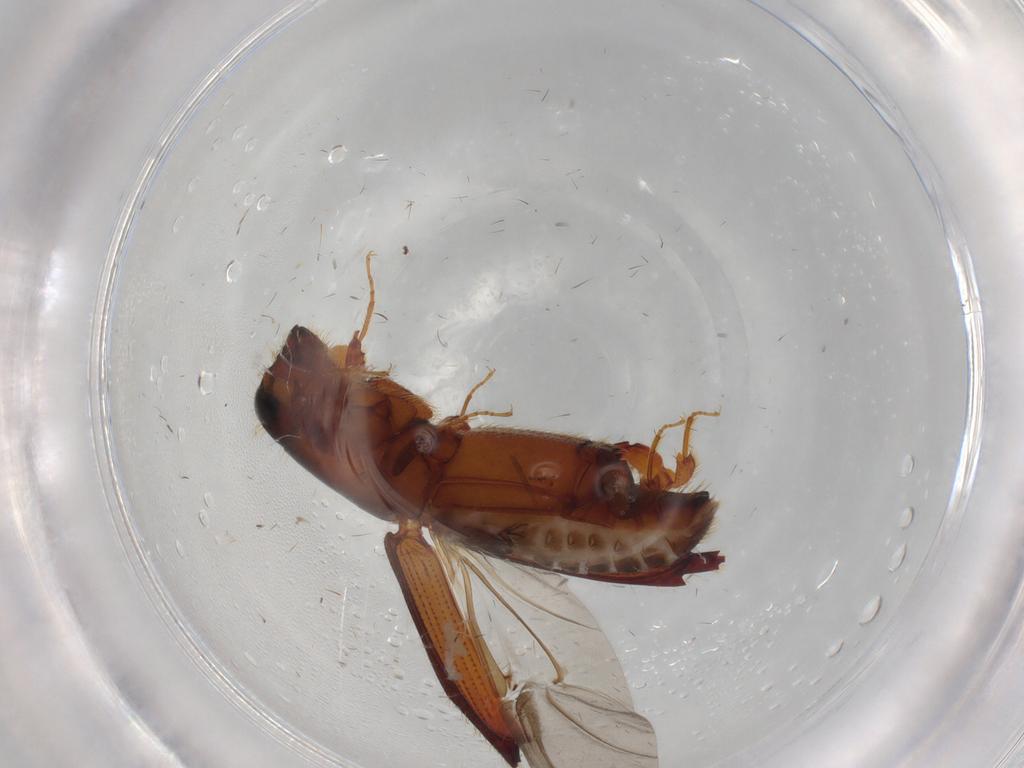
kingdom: Animalia
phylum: Arthropoda
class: Insecta
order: Coleoptera
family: Curculionidae
